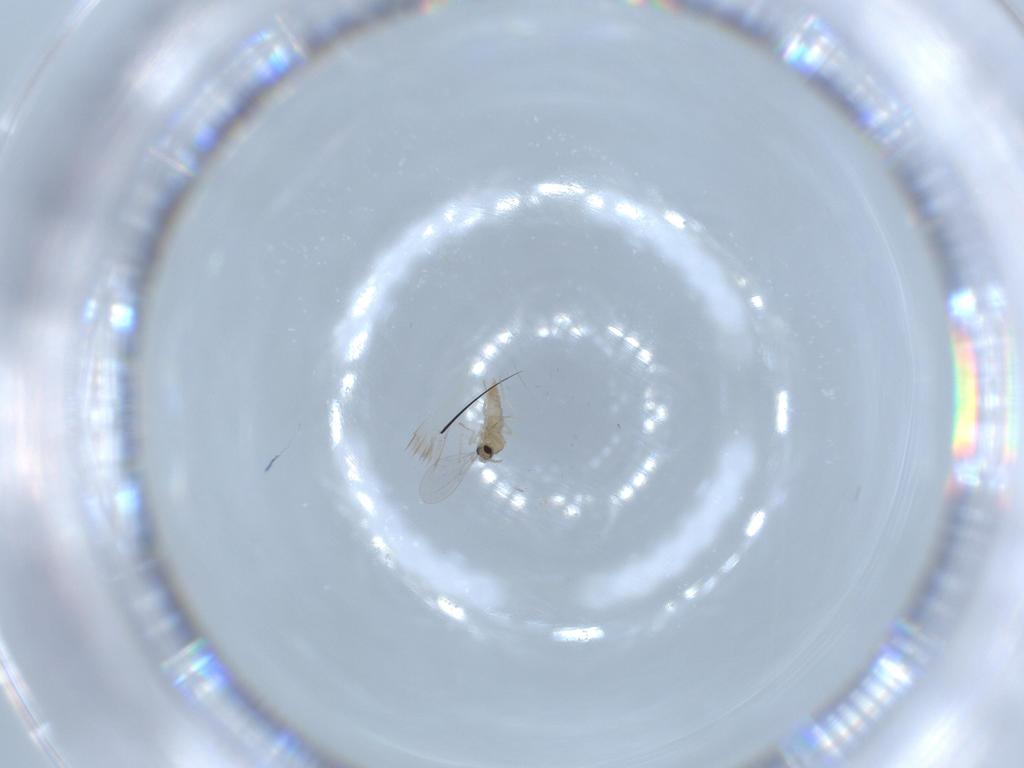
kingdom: Animalia
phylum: Arthropoda
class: Insecta
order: Diptera
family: Cecidomyiidae
